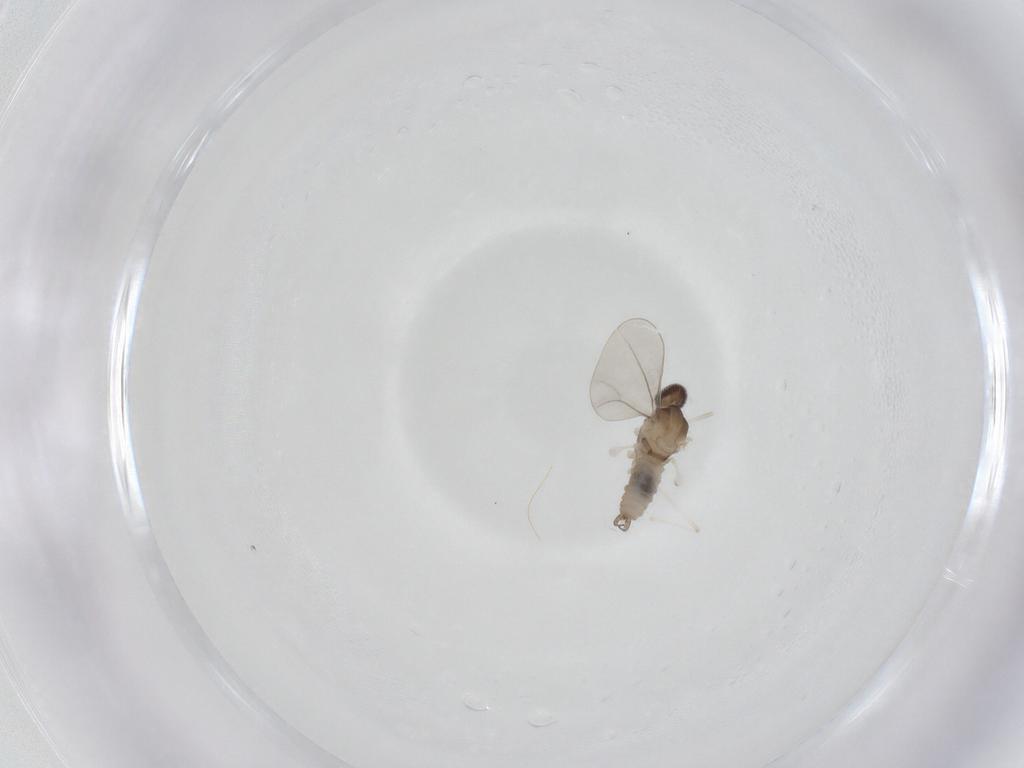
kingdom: Animalia
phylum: Arthropoda
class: Insecta
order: Diptera
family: Cecidomyiidae
